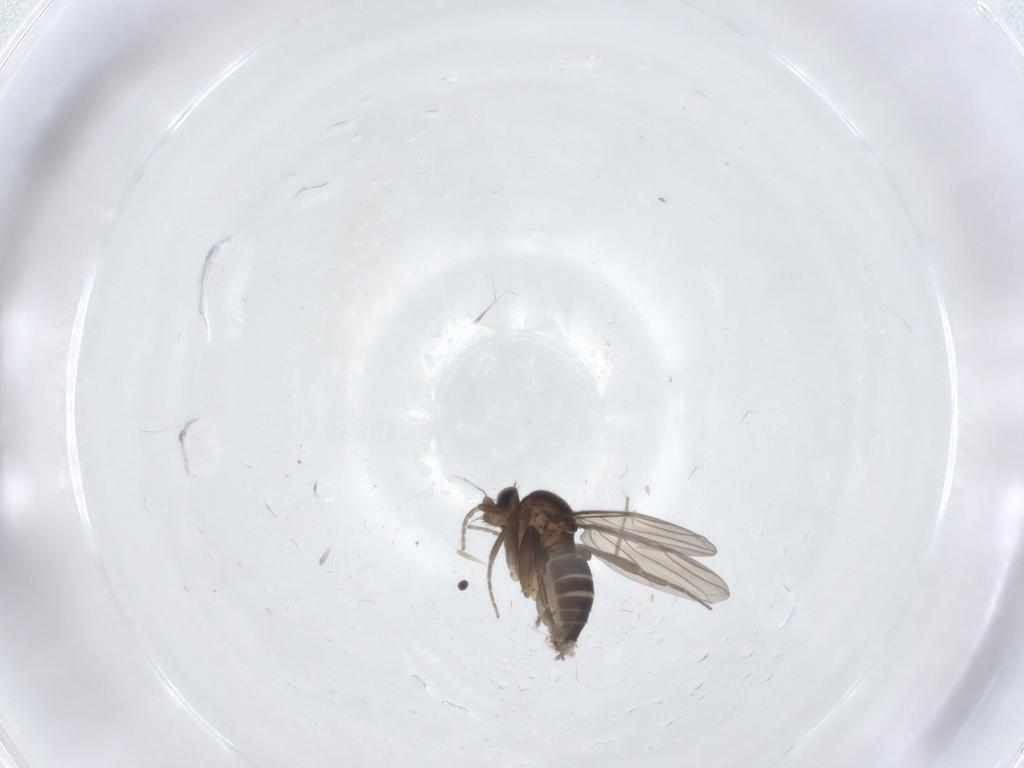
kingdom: Animalia
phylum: Arthropoda
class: Insecta
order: Diptera
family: Phoridae
